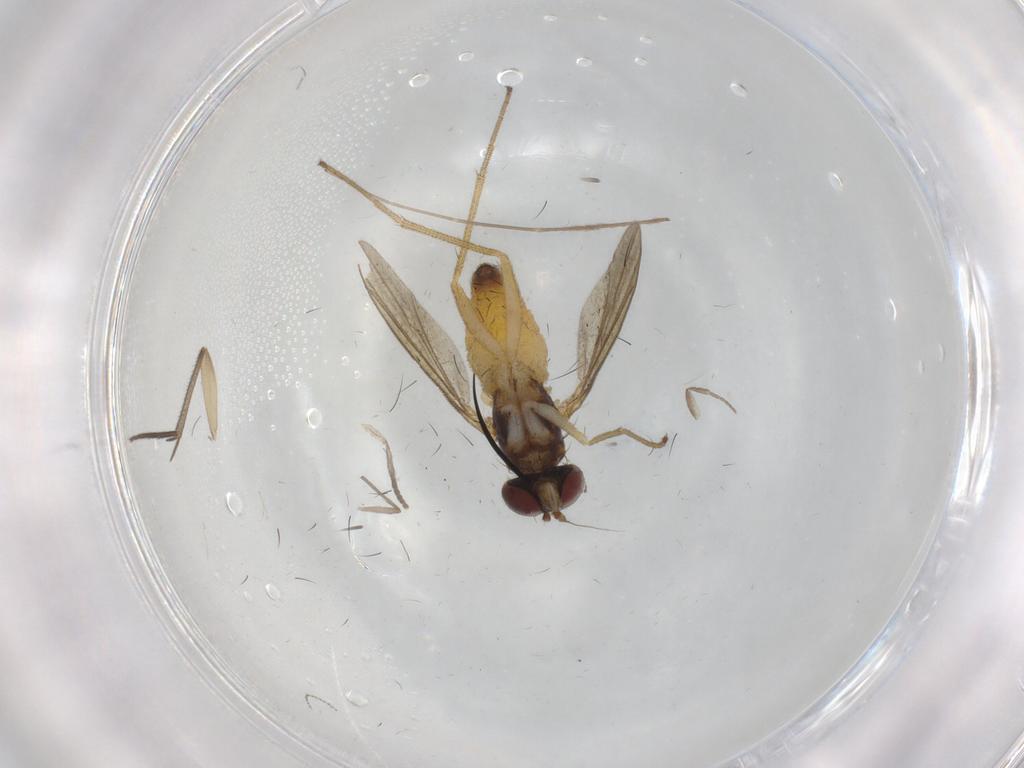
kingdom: Animalia
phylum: Arthropoda
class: Insecta
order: Diptera
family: Dolichopodidae
